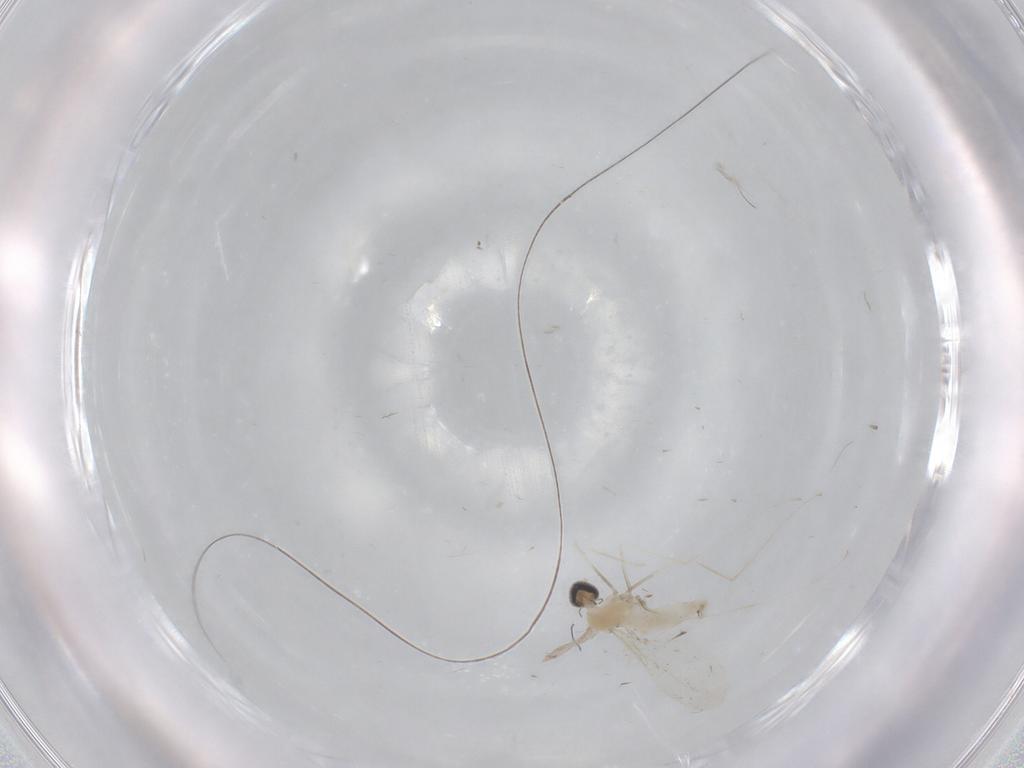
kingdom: Animalia
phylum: Arthropoda
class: Insecta
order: Diptera
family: Cecidomyiidae
